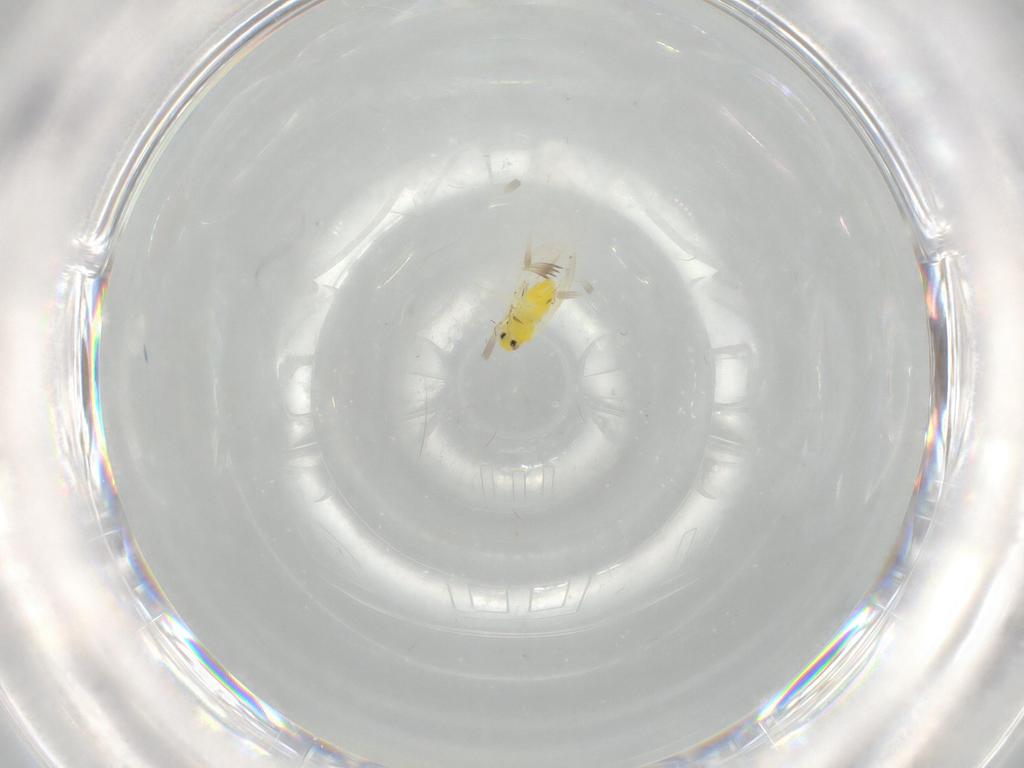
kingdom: Animalia
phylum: Arthropoda
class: Insecta
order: Hemiptera
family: Aleyrodidae
